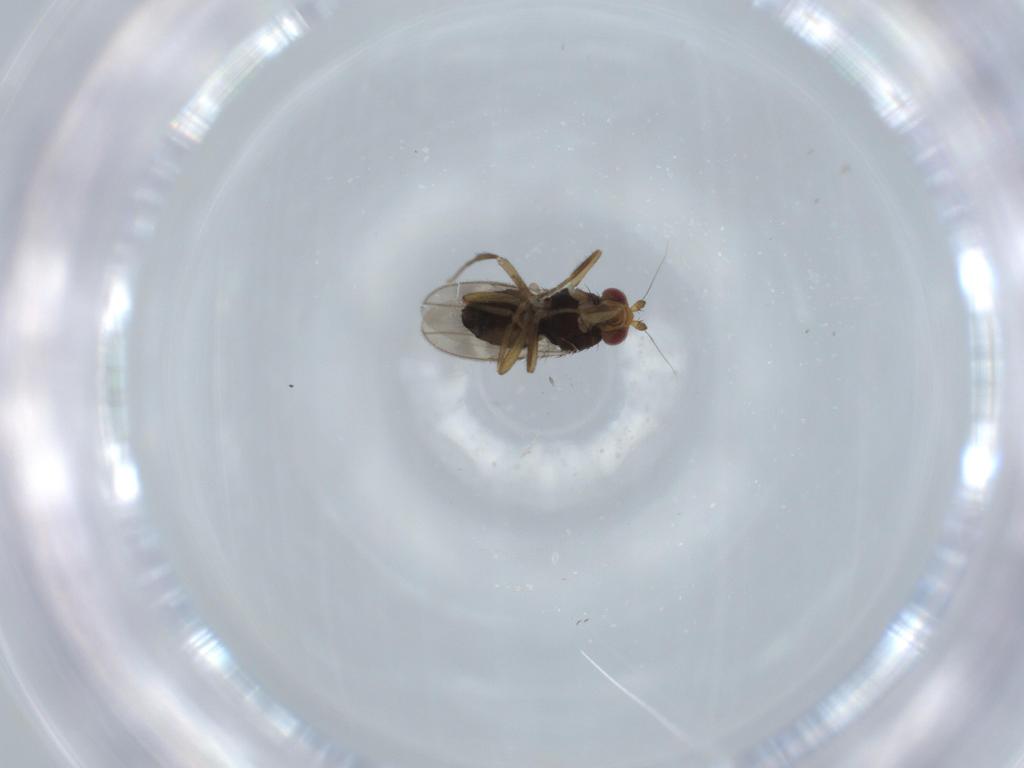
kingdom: Animalia
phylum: Arthropoda
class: Insecta
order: Diptera
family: Sphaeroceridae
